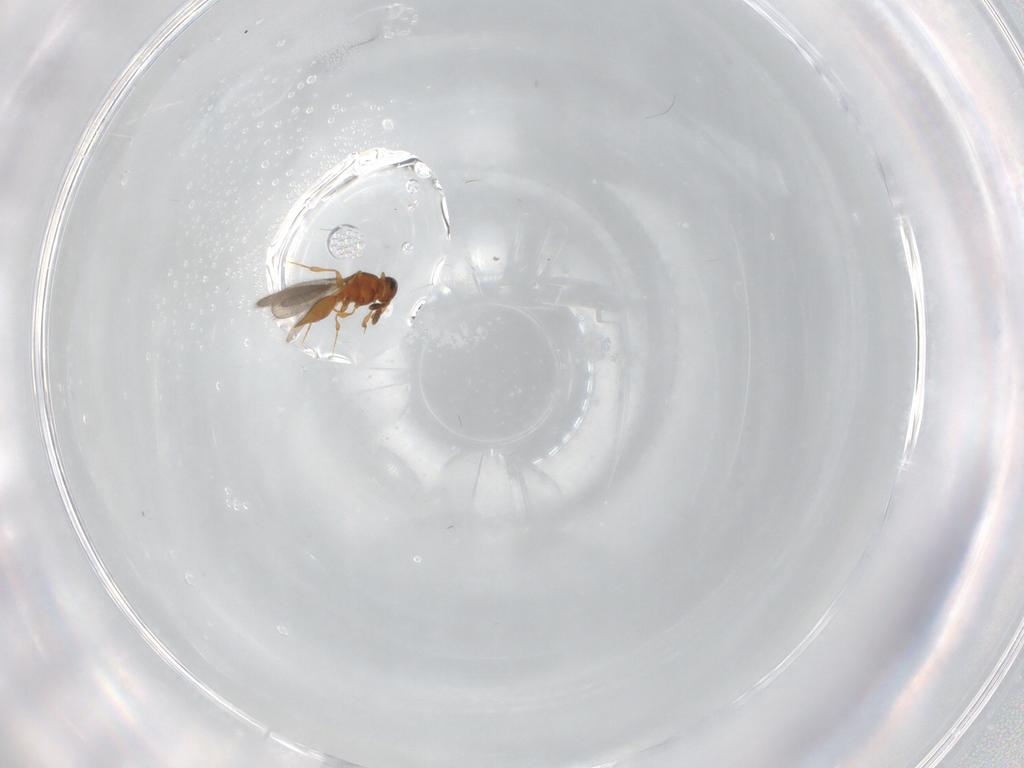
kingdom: Animalia
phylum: Arthropoda
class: Insecta
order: Hymenoptera
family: Platygastridae
